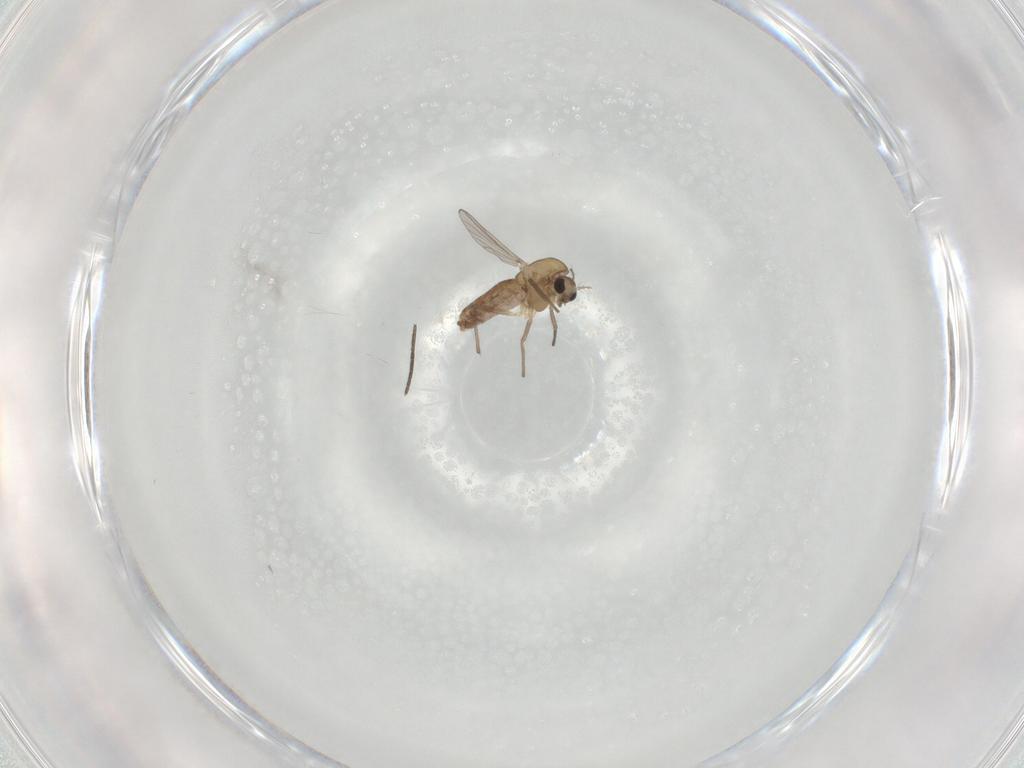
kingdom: Animalia
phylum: Arthropoda
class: Insecta
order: Diptera
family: Chironomidae
